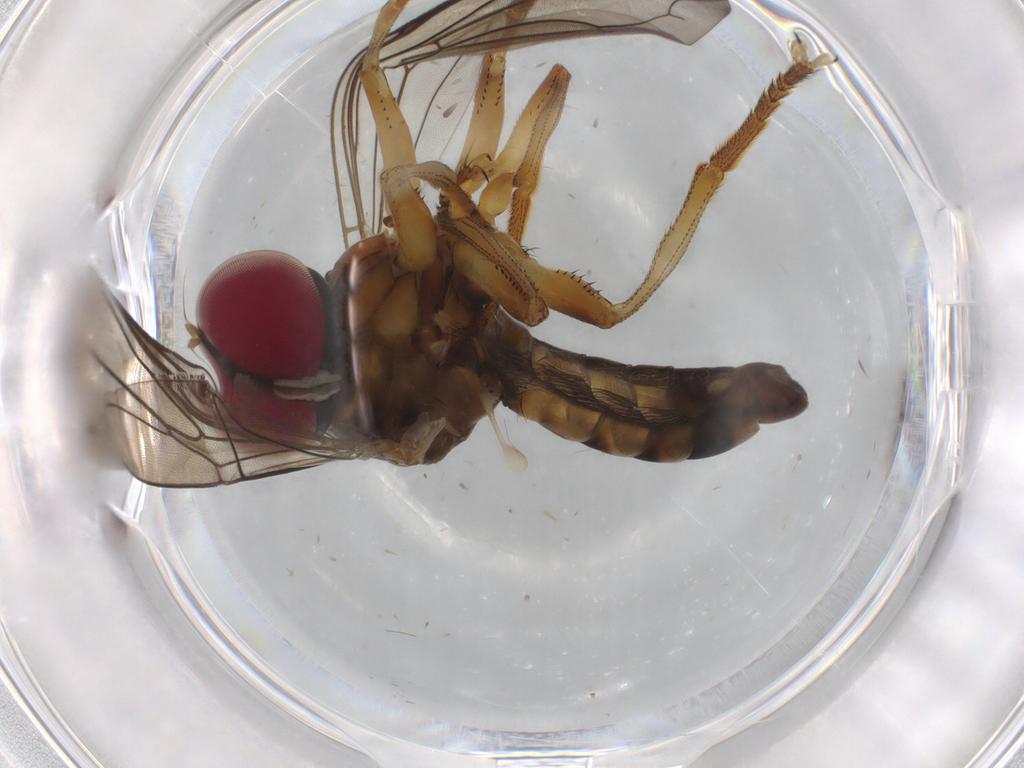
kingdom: Animalia
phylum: Arthropoda
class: Insecta
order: Diptera
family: Pipunculidae
